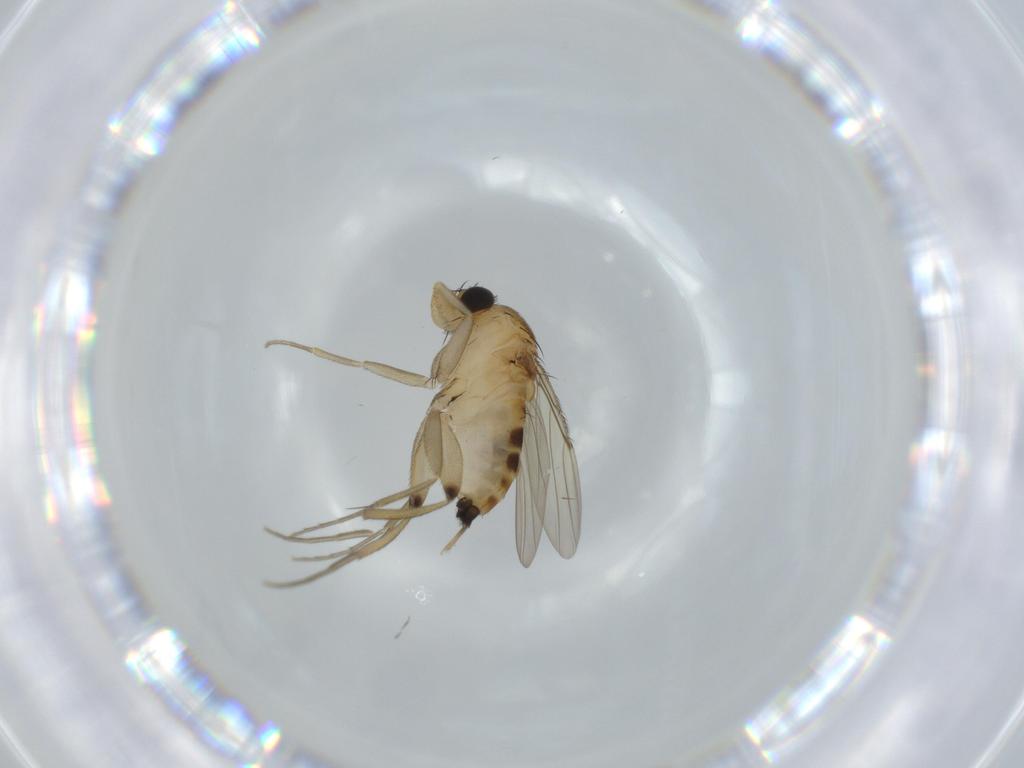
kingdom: Animalia
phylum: Arthropoda
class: Insecta
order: Diptera
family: Phoridae
